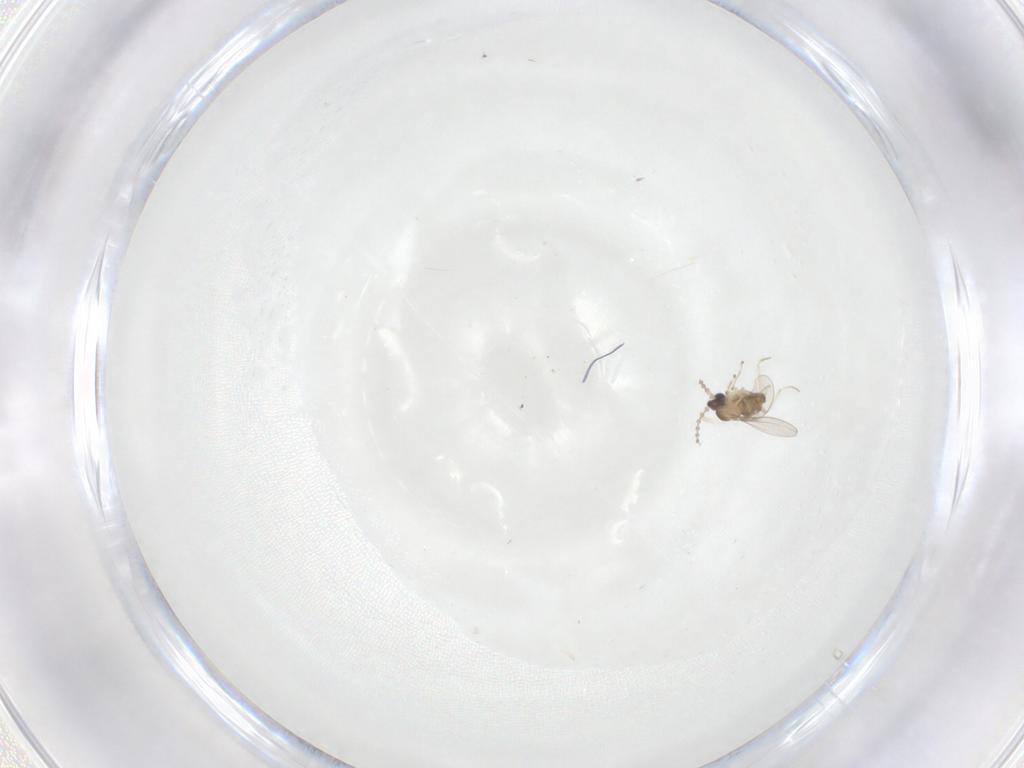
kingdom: Animalia
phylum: Arthropoda
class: Insecta
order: Diptera
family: Cecidomyiidae
